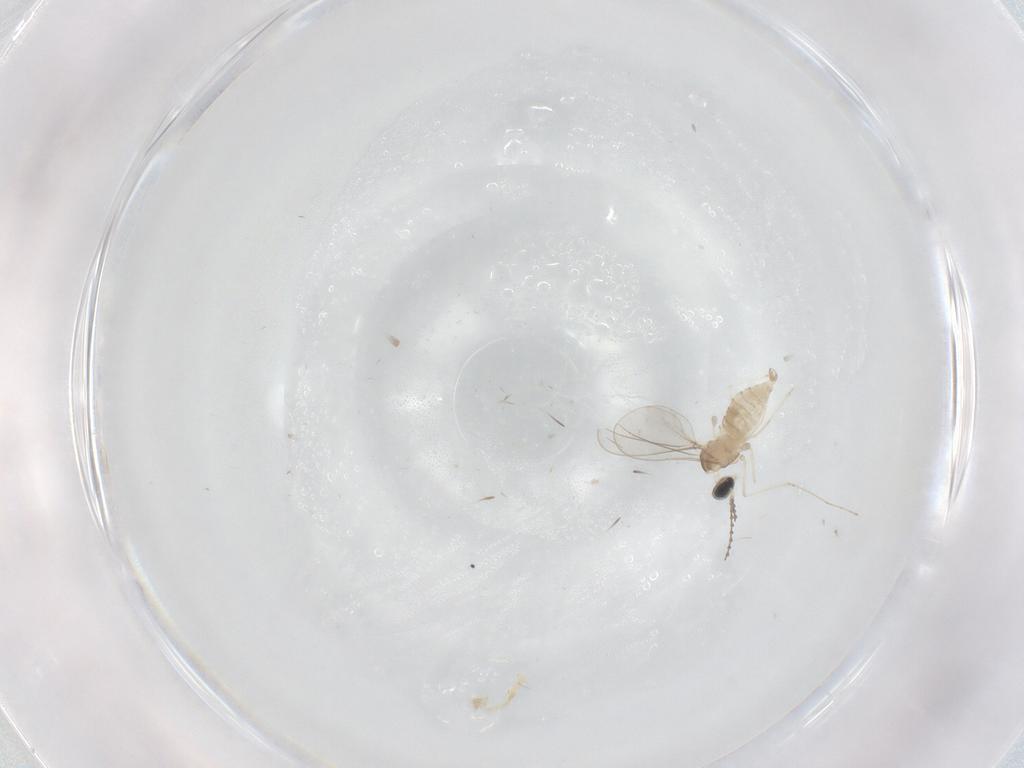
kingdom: Animalia
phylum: Arthropoda
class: Insecta
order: Diptera
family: Cecidomyiidae
